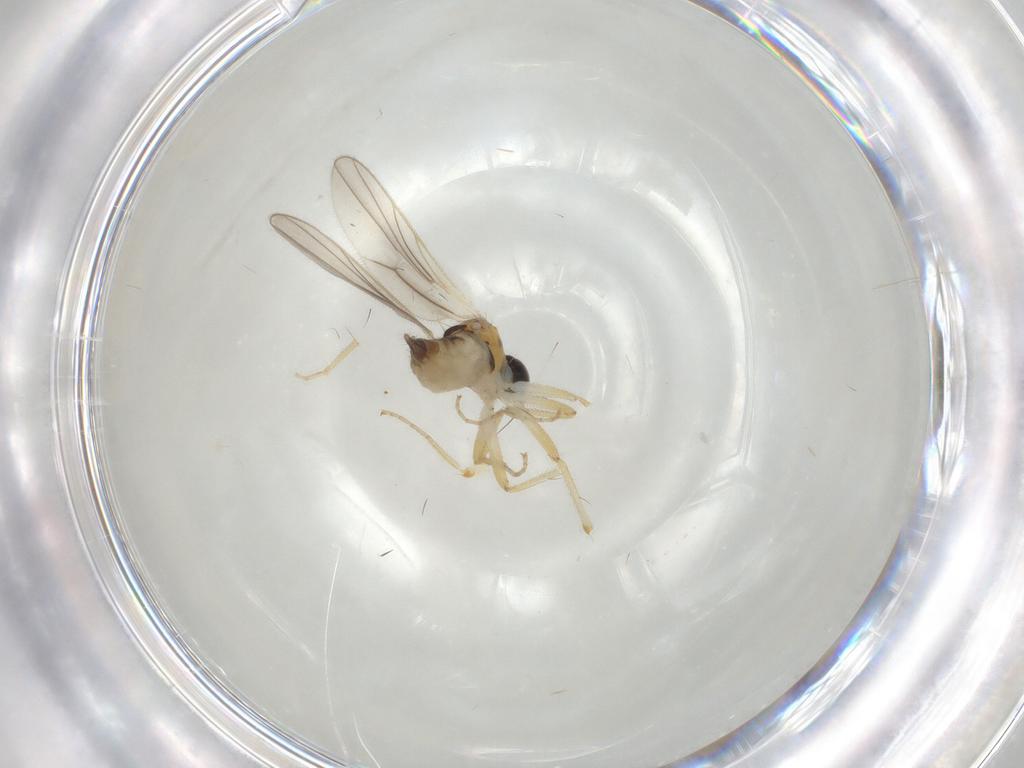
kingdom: Animalia
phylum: Arthropoda
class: Insecta
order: Diptera
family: Hybotidae
